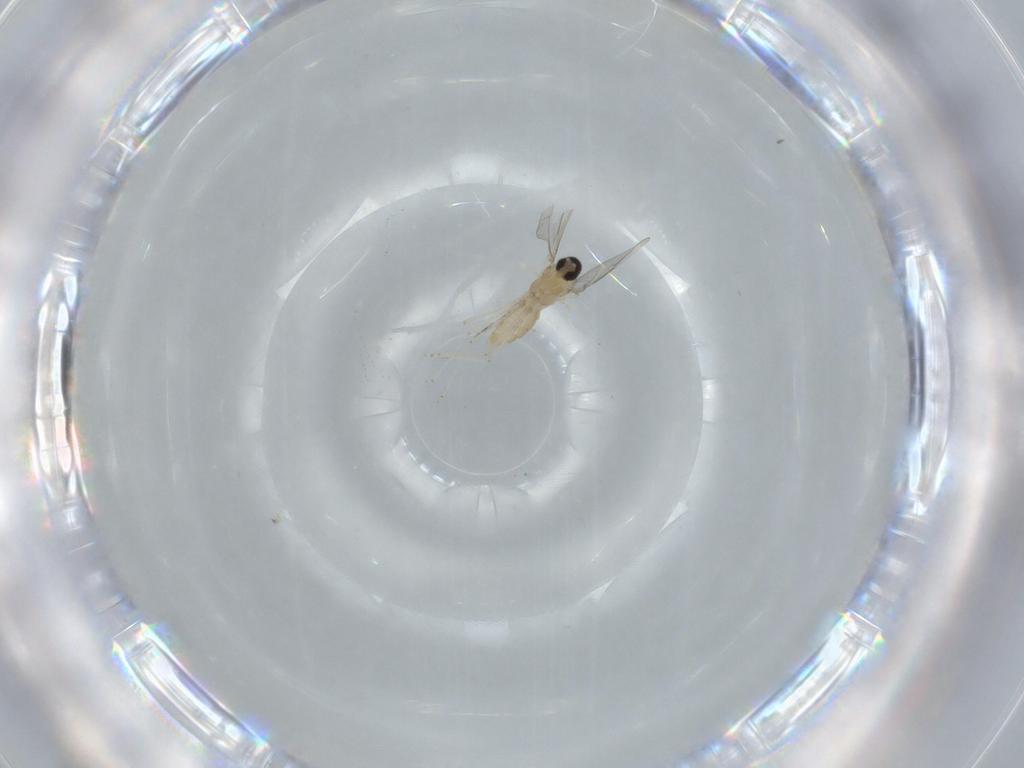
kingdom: Animalia
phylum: Arthropoda
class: Insecta
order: Diptera
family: Cecidomyiidae
